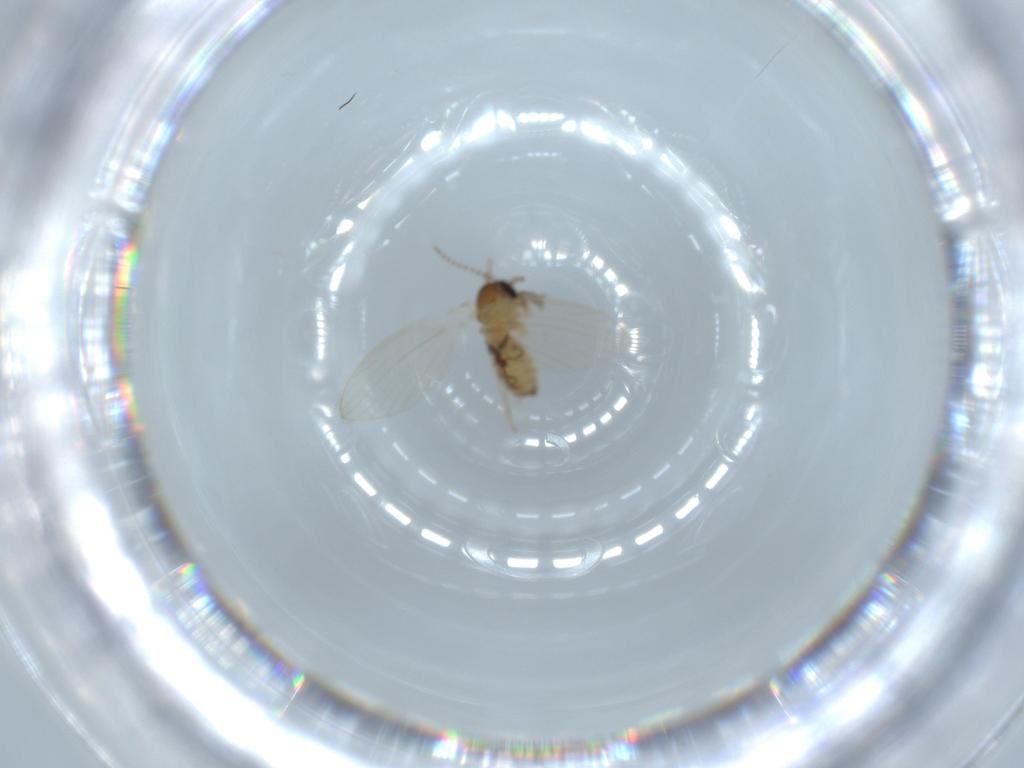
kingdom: Animalia
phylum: Arthropoda
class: Insecta
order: Diptera
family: Psychodidae
